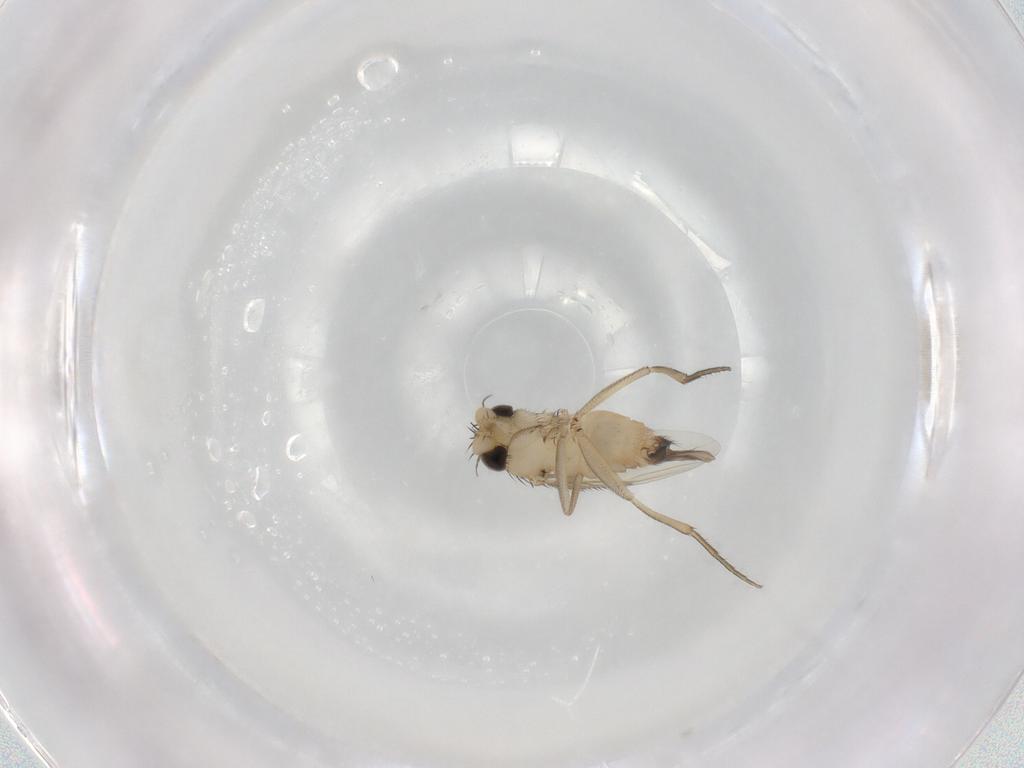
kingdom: Animalia
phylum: Arthropoda
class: Insecta
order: Diptera
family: Phoridae
